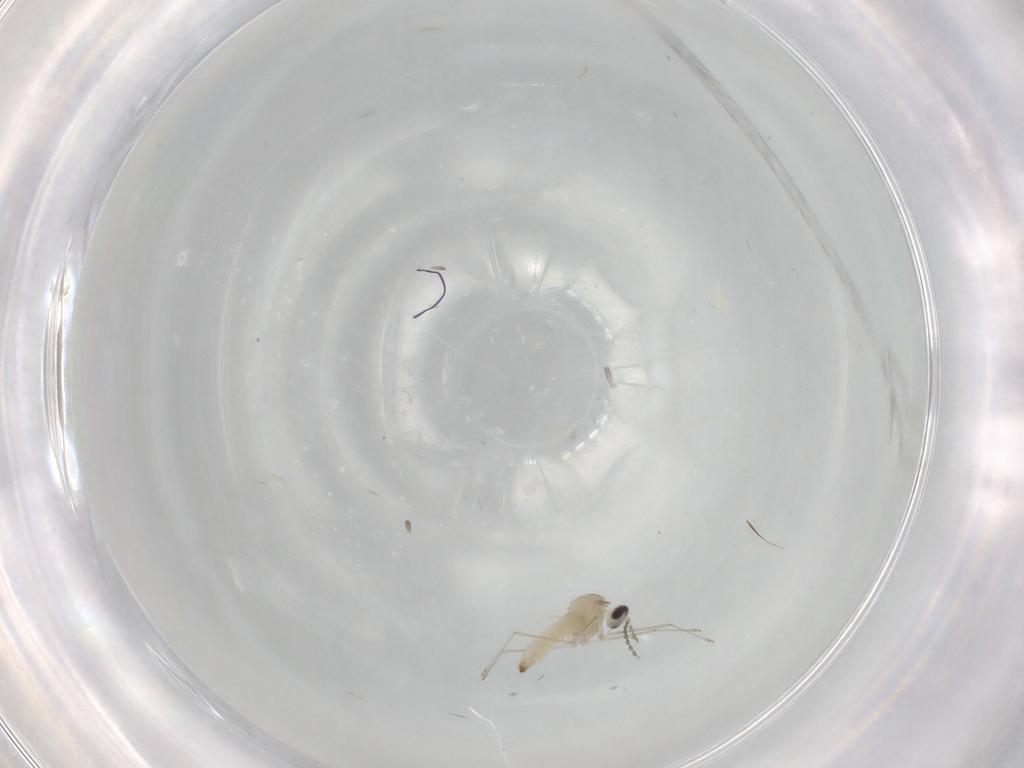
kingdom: Animalia
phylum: Arthropoda
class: Insecta
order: Diptera
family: Cecidomyiidae
